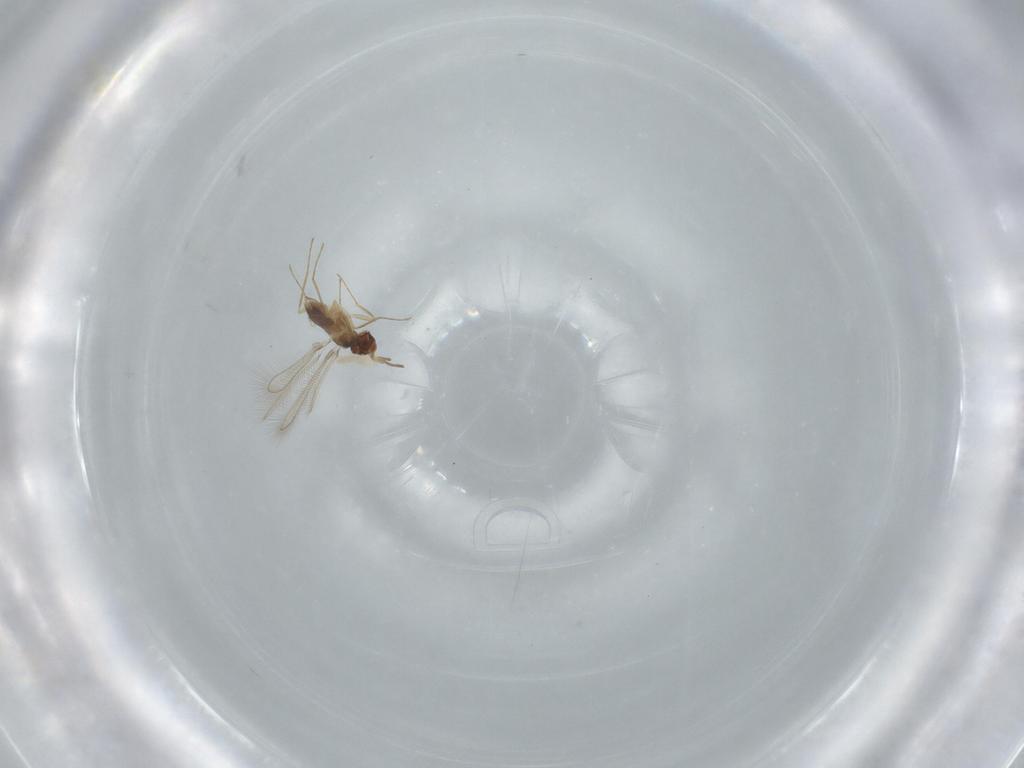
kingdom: Animalia
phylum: Arthropoda
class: Insecta
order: Hymenoptera
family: Mymaridae
